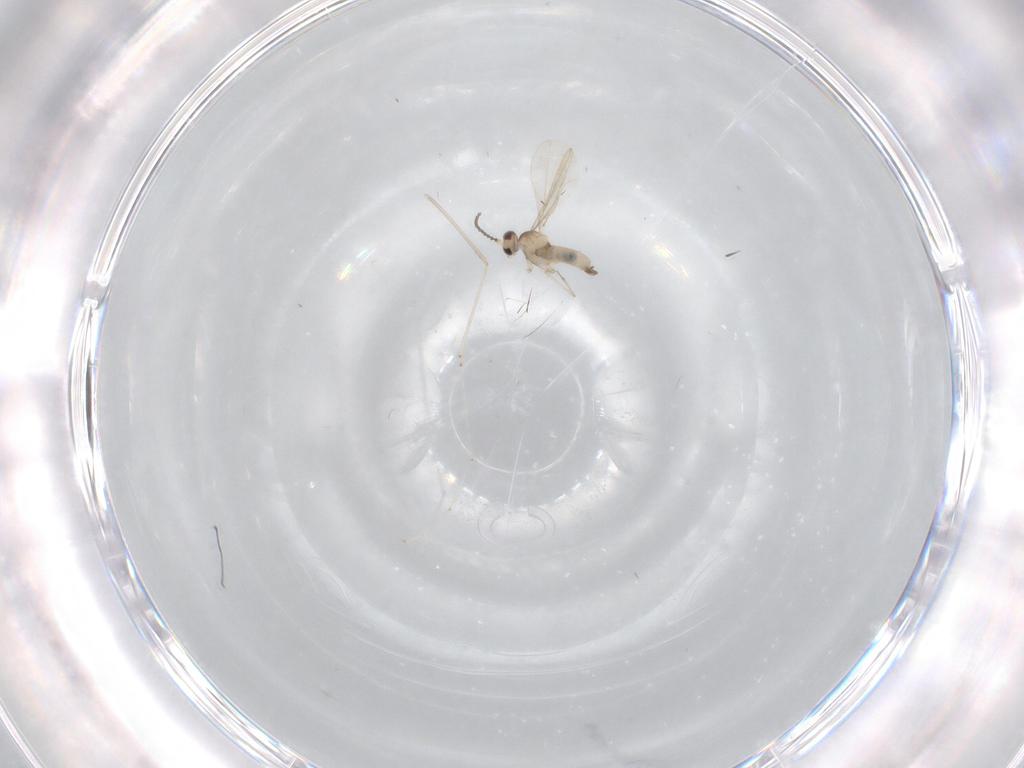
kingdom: Animalia
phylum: Arthropoda
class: Insecta
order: Diptera
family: Cecidomyiidae
